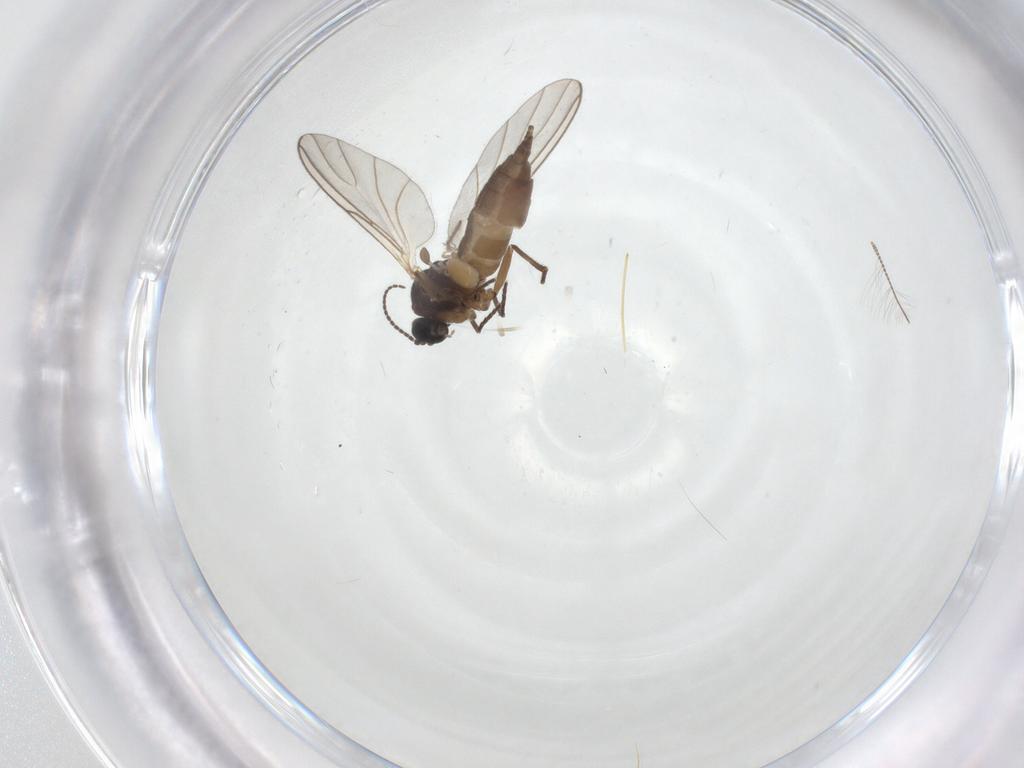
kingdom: Animalia
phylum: Arthropoda
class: Insecta
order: Diptera
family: Chironomidae
